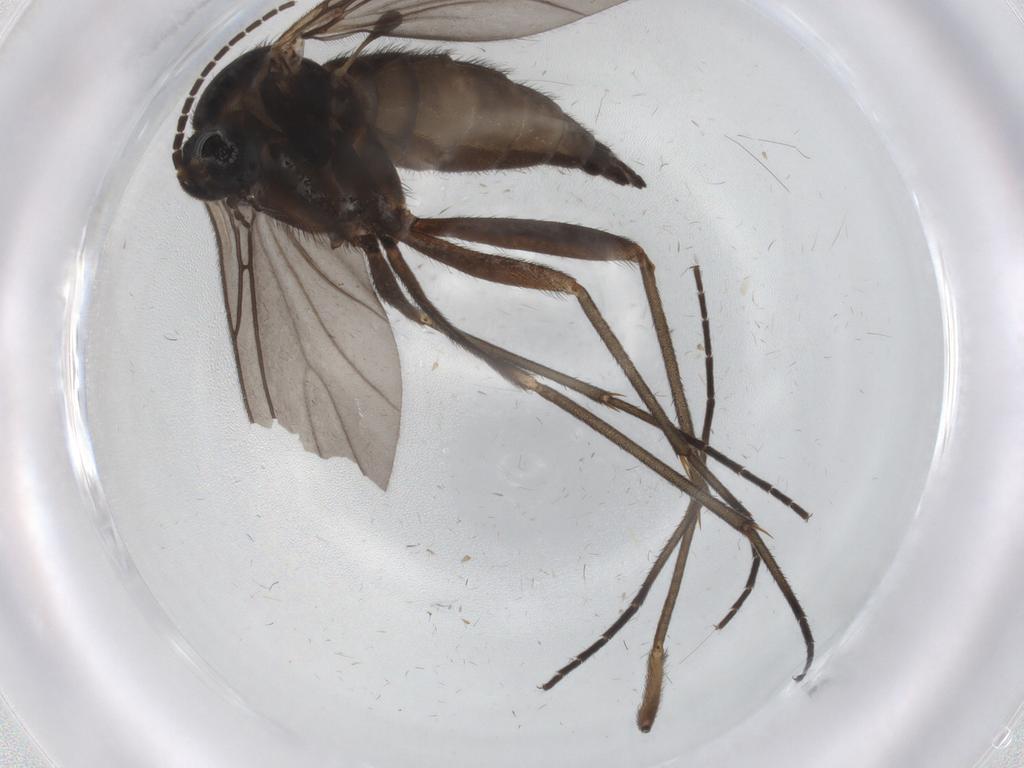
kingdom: Animalia
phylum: Arthropoda
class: Insecta
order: Diptera
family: Sciaridae
